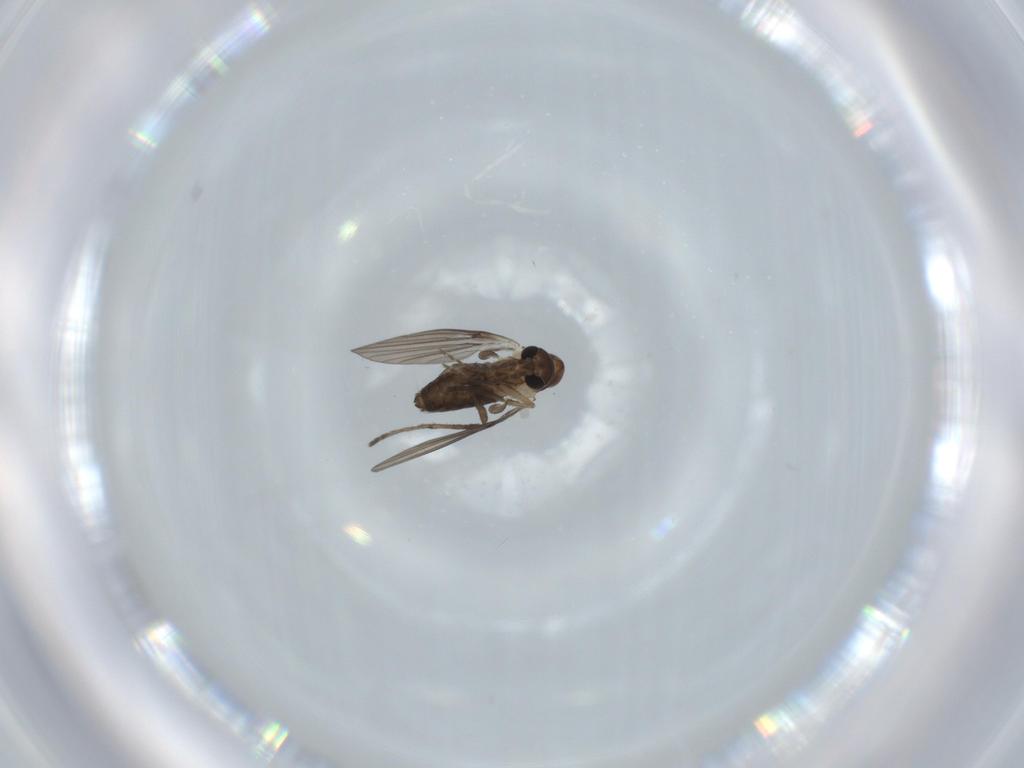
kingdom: Animalia
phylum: Arthropoda
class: Insecta
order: Diptera
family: Psychodidae
